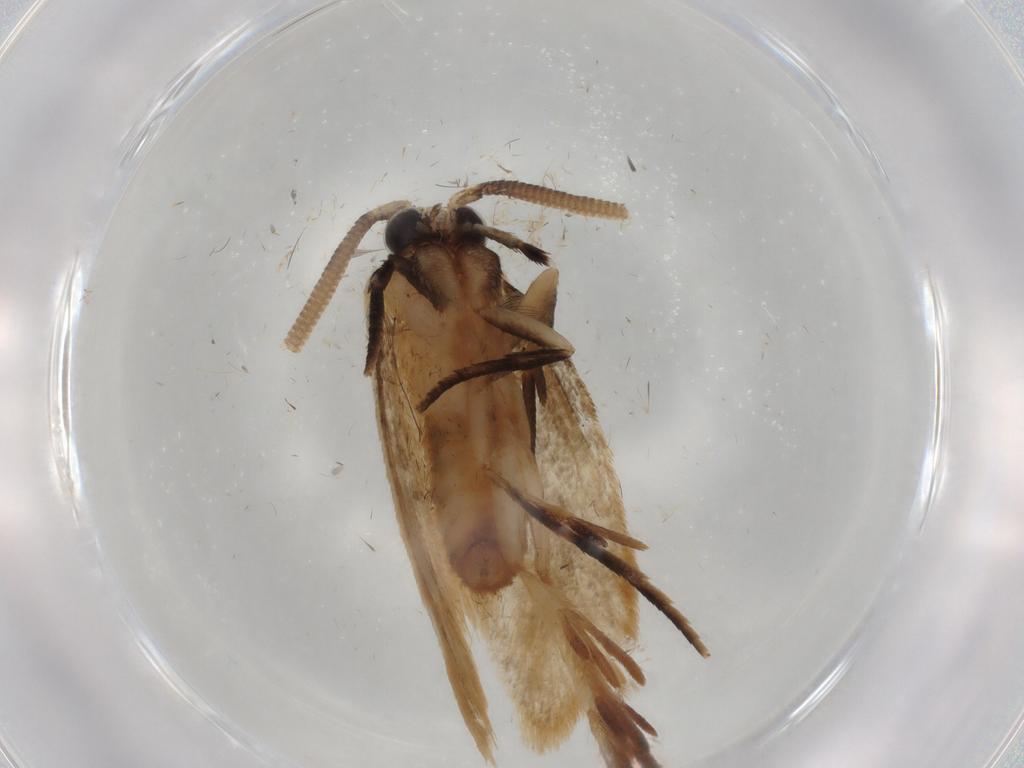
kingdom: Animalia
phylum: Arthropoda
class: Insecta
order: Lepidoptera
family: Tineidae
